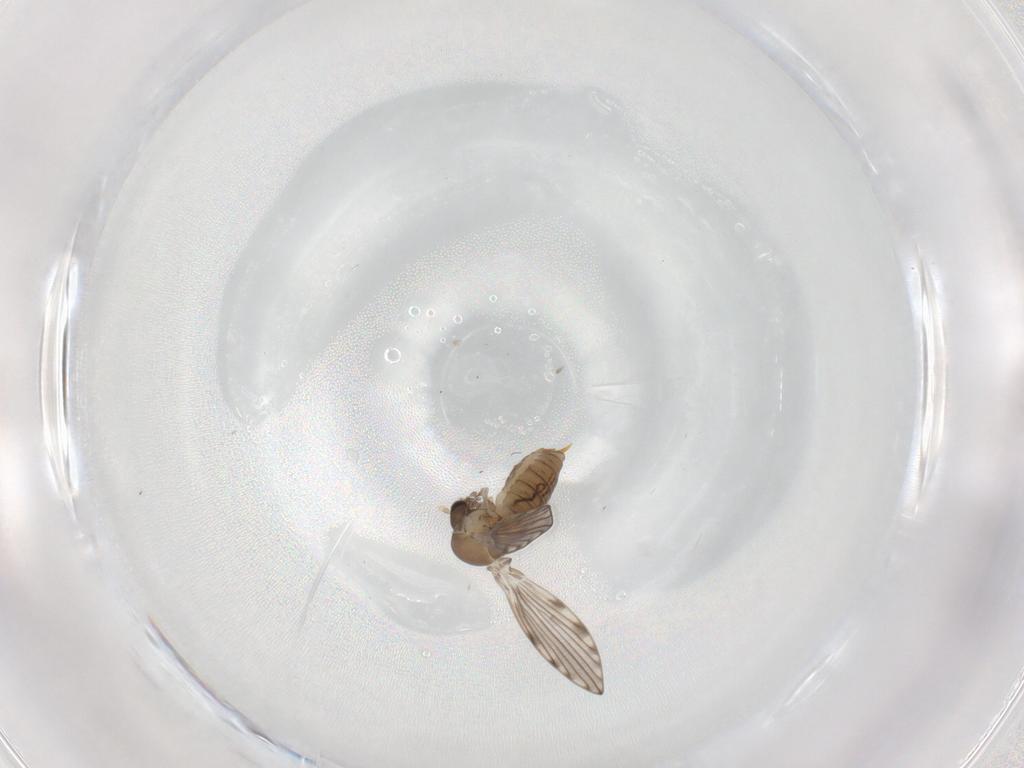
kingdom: Animalia
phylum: Arthropoda
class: Insecta
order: Diptera
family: Psychodidae
